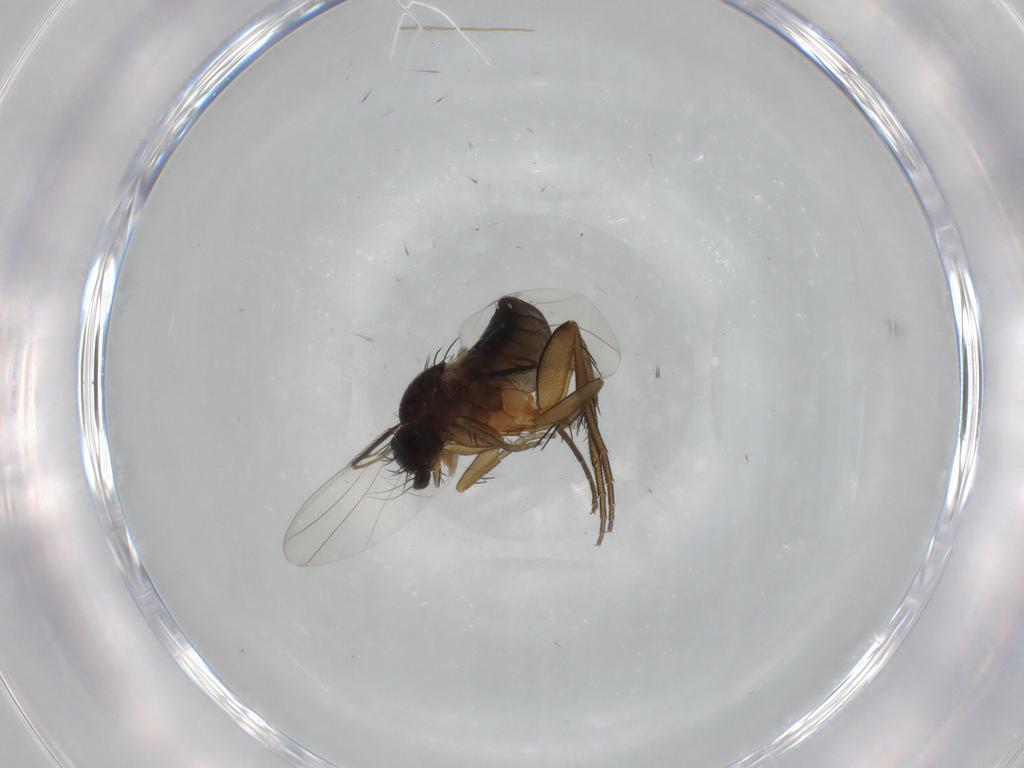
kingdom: Animalia
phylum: Arthropoda
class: Insecta
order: Diptera
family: Phoridae
